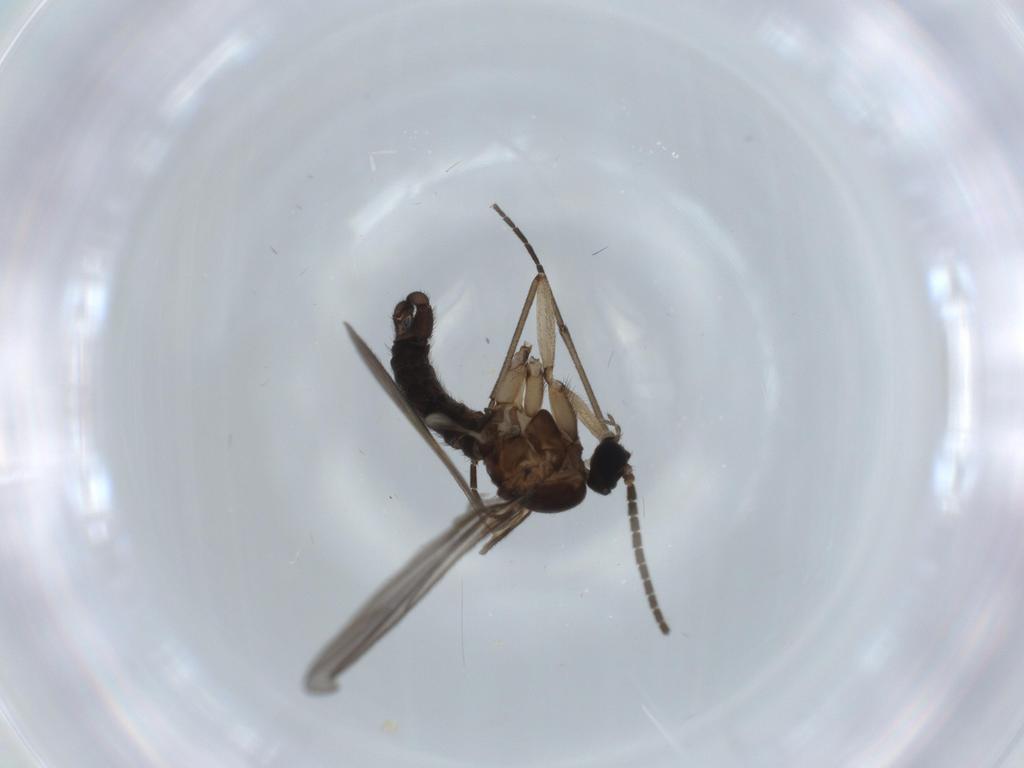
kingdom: Animalia
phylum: Arthropoda
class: Insecta
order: Diptera
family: Sciaridae
